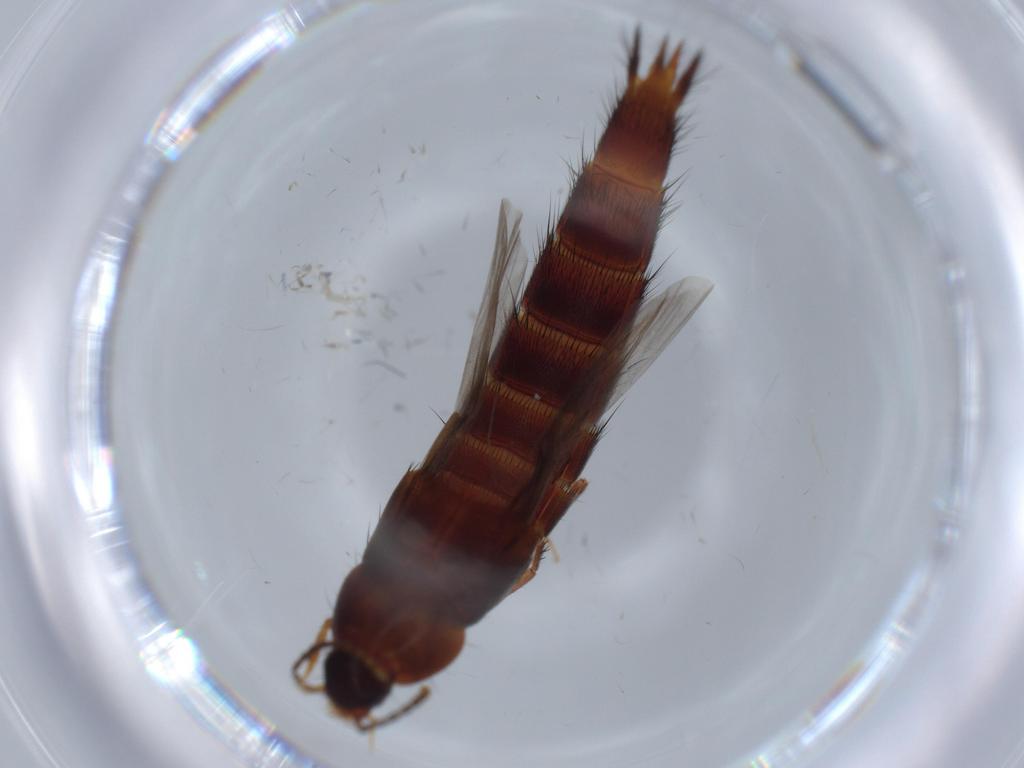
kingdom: Animalia
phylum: Arthropoda
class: Insecta
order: Coleoptera
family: Staphylinidae
